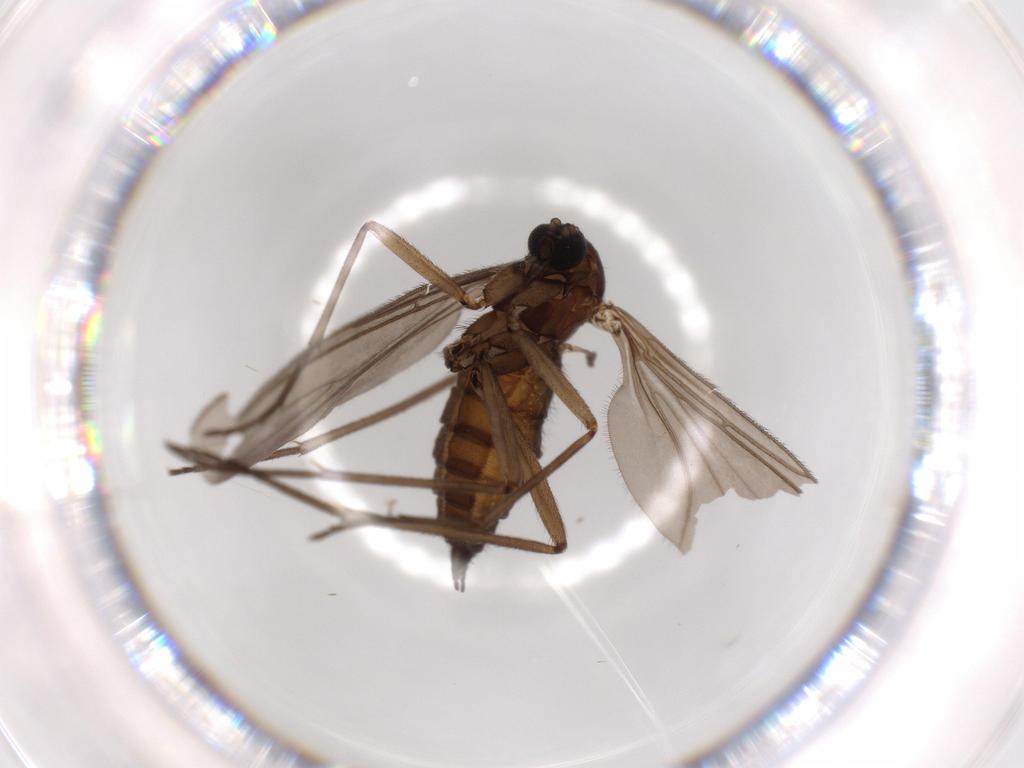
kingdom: Animalia
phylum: Arthropoda
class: Insecta
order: Diptera
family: Sciaridae
